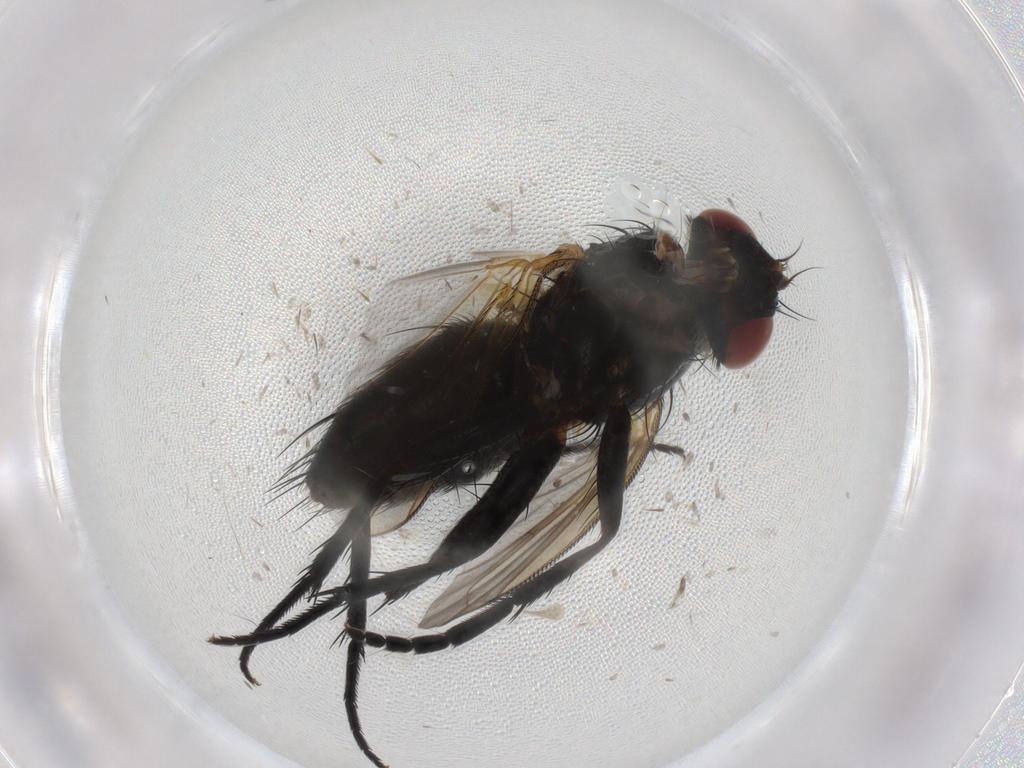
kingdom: Animalia
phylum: Arthropoda
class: Insecta
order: Diptera
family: Tachinidae
